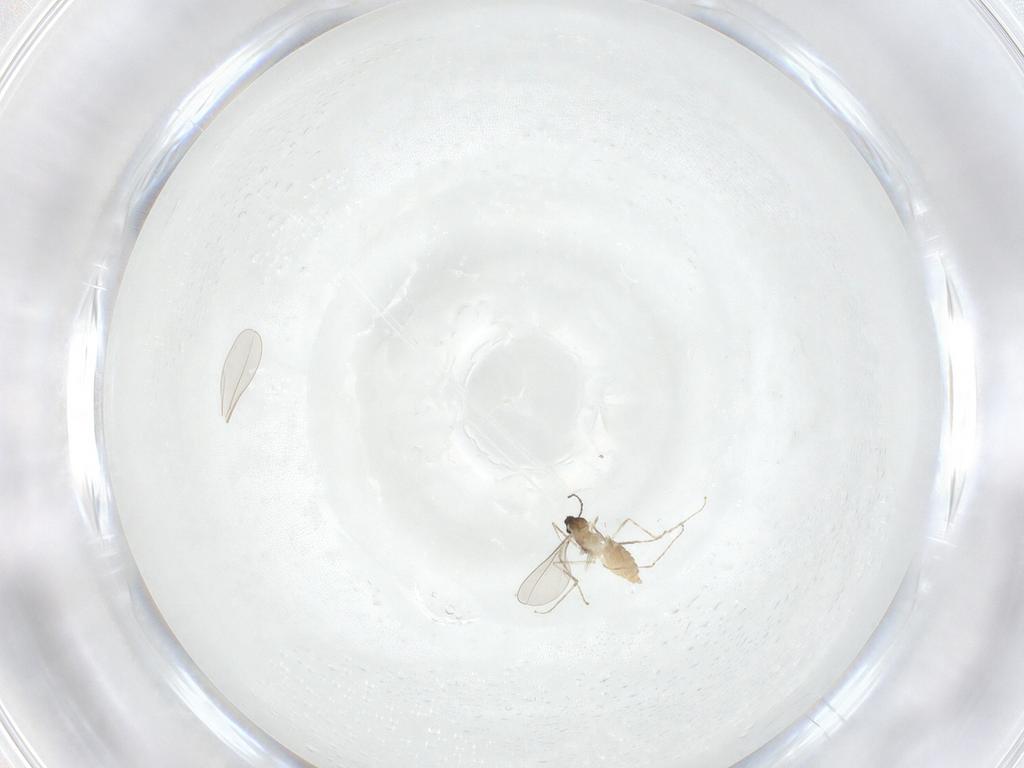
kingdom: Animalia
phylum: Arthropoda
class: Insecta
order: Diptera
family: Cecidomyiidae
